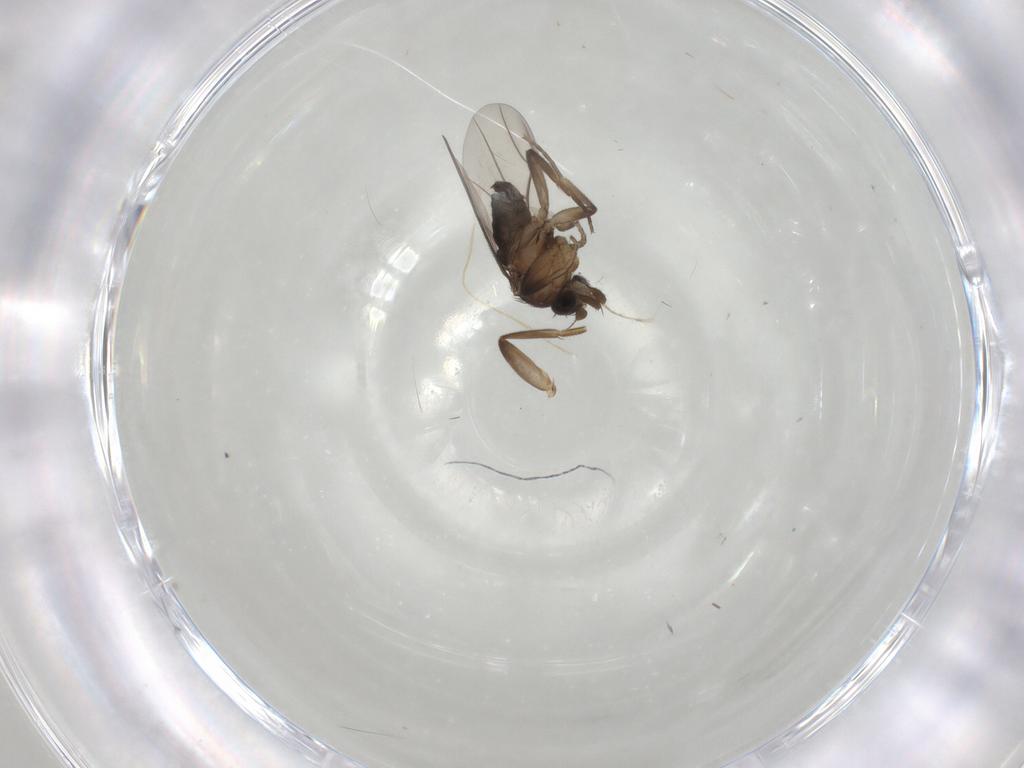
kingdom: Animalia
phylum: Arthropoda
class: Insecta
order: Diptera
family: Phoridae
